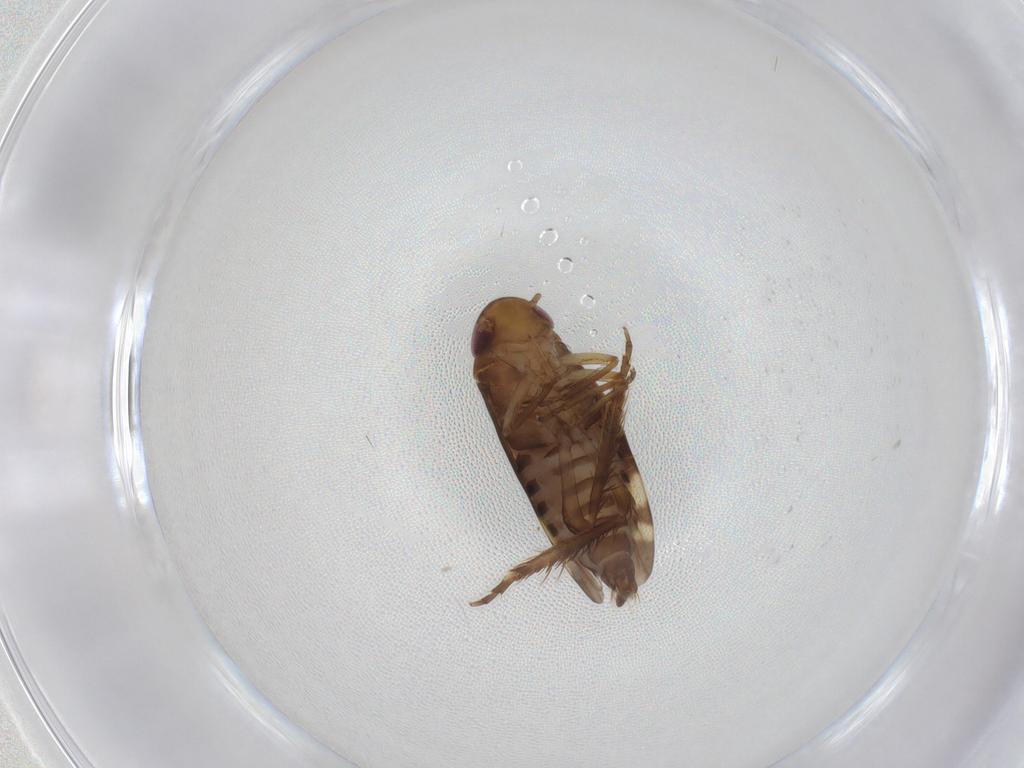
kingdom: Animalia
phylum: Arthropoda
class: Insecta
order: Hemiptera
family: Cicadellidae
